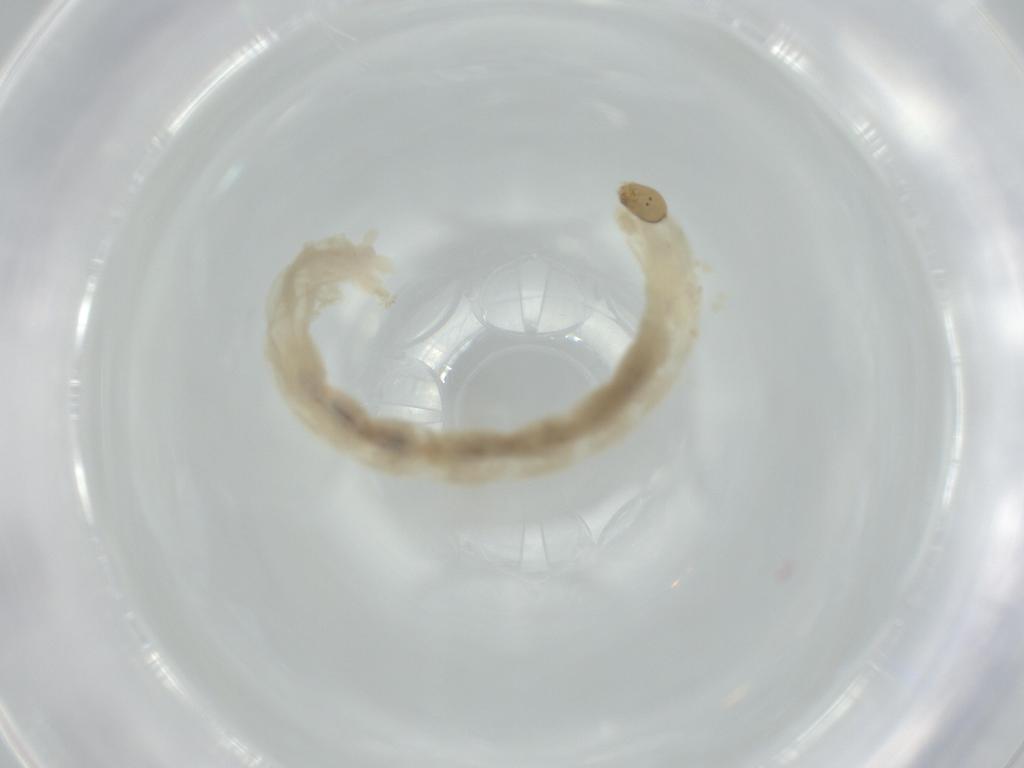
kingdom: Animalia
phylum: Arthropoda
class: Insecta
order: Diptera
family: Chironomidae
